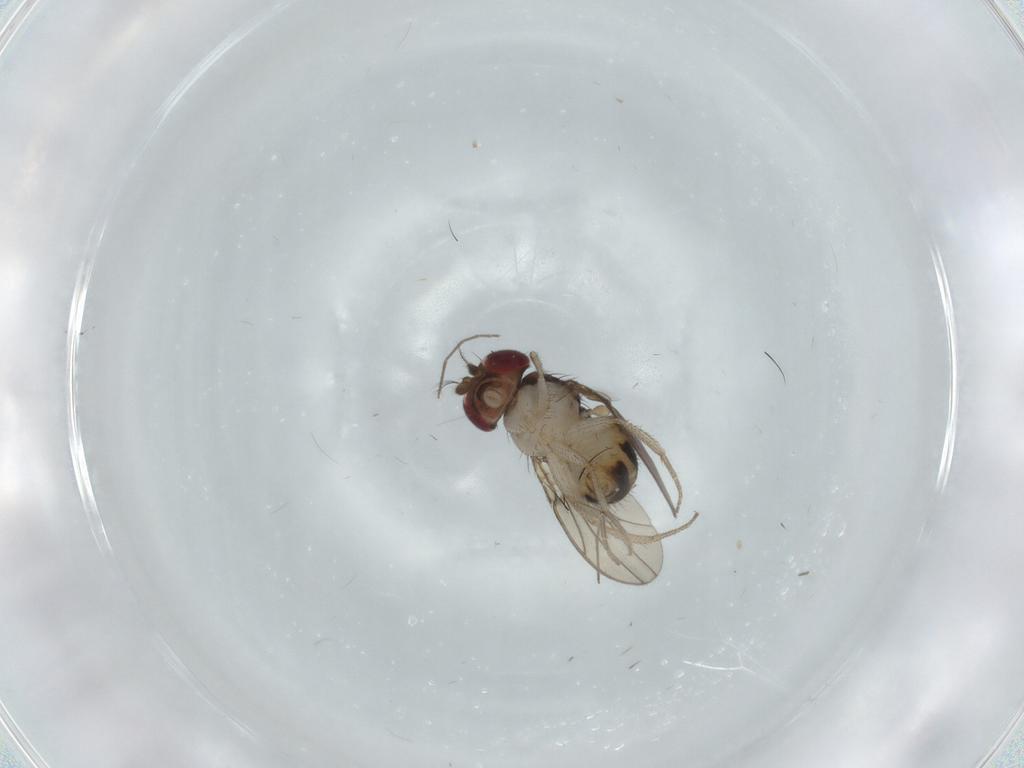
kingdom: Animalia
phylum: Arthropoda
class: Insecta
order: Diptera
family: Drosophilidae
